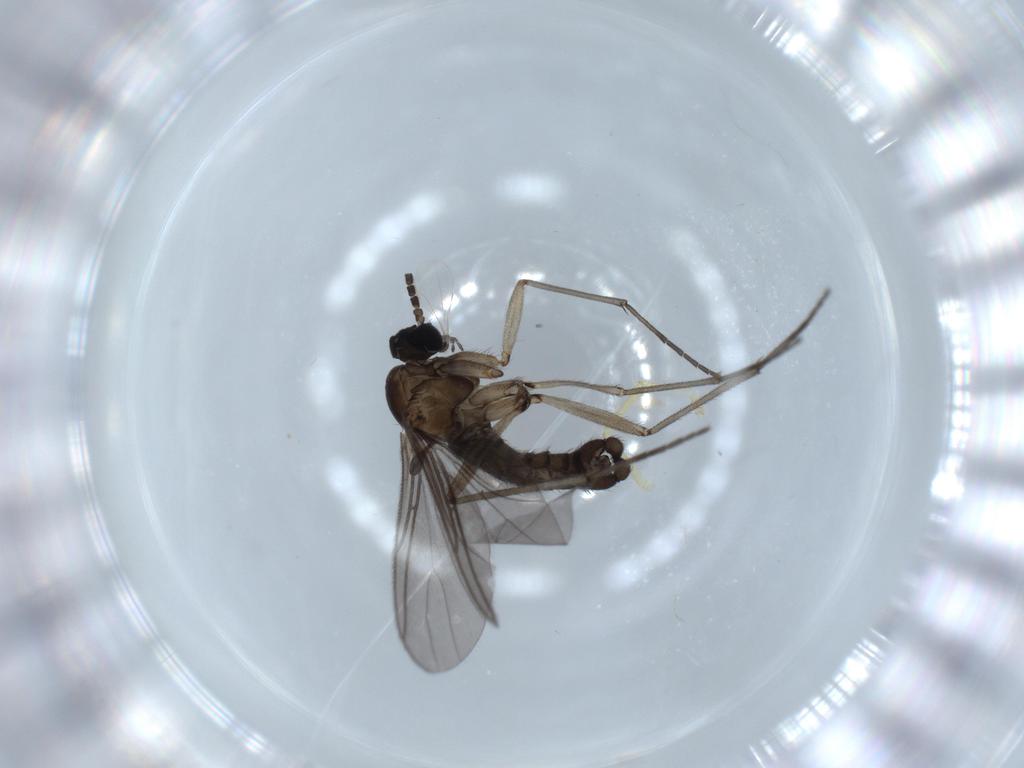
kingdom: Animalia
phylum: Arthropoda
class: Insecta
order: Diptera
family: Sciaridae
